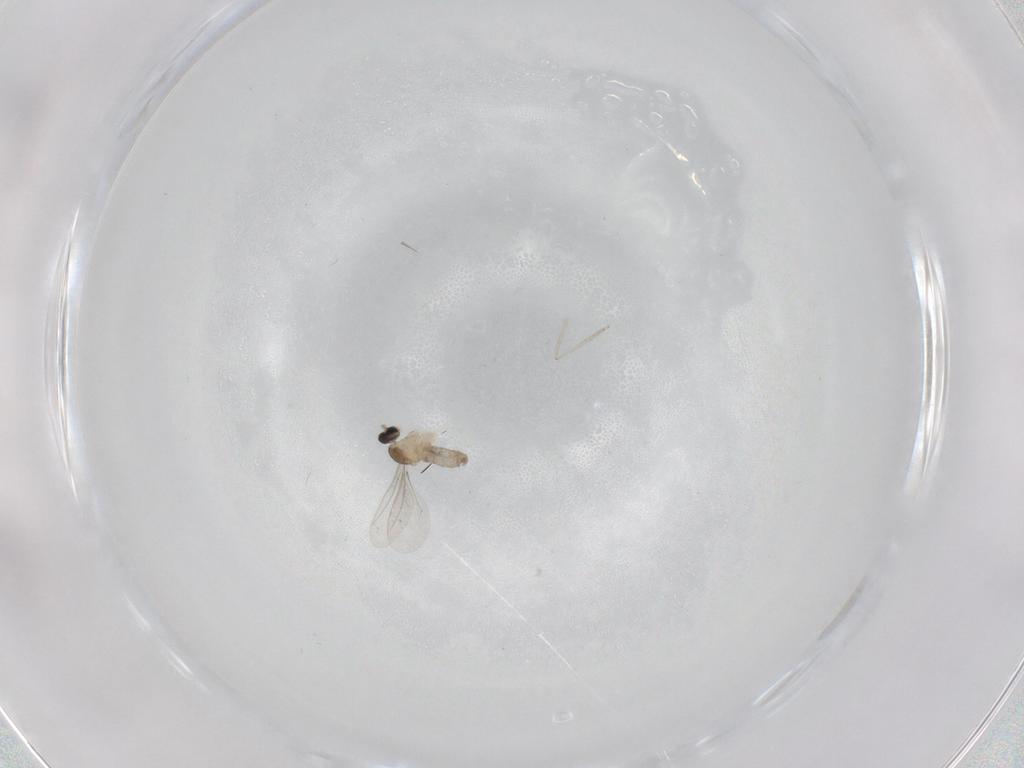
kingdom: Animalia
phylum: Arthropoda
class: Insecta
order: Diptera
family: Cecidomyiidae
